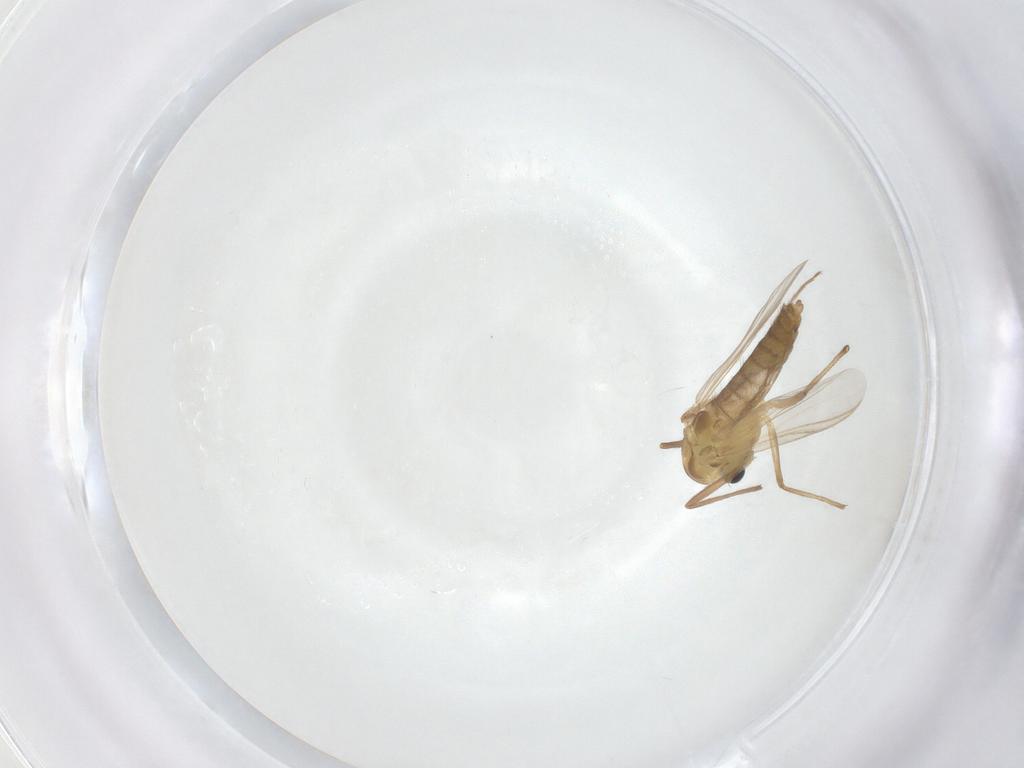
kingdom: Animalia
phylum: Arthropoda
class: Insecta
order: Diptera
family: Chironomidae
